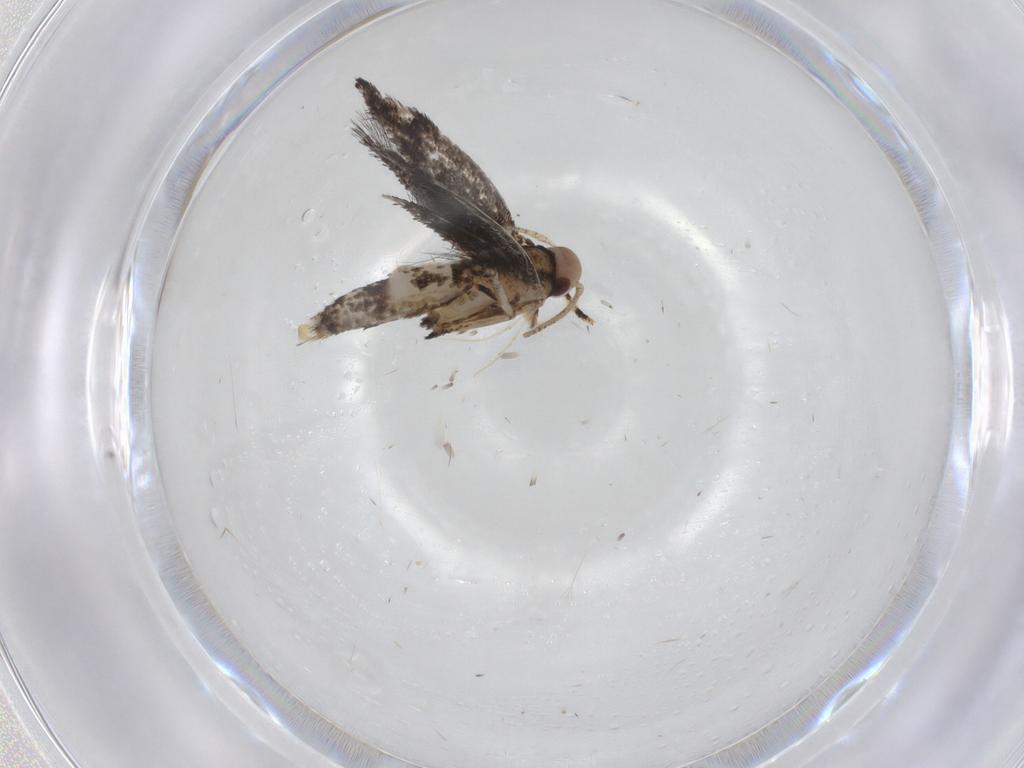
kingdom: Animalia
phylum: Arthropoda
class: Insecta
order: Lepidoptera
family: Cosmopterigidae
